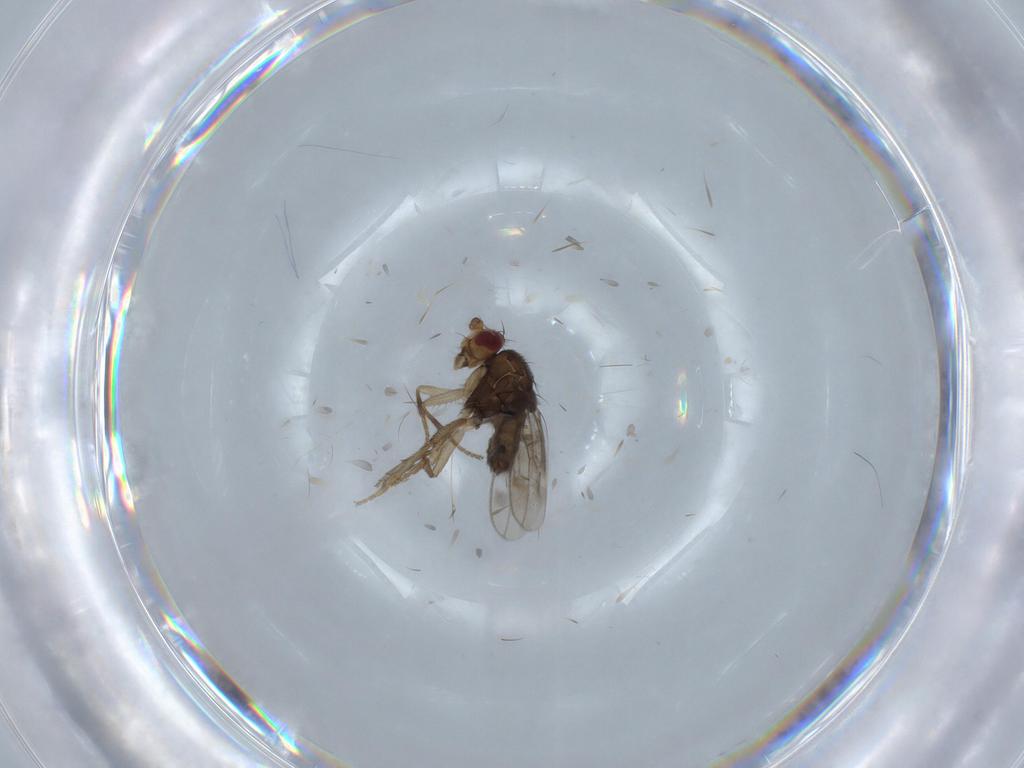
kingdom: Animalia
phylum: Arthropoda
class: Insecta
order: Diptera
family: Sphaeroceridae
